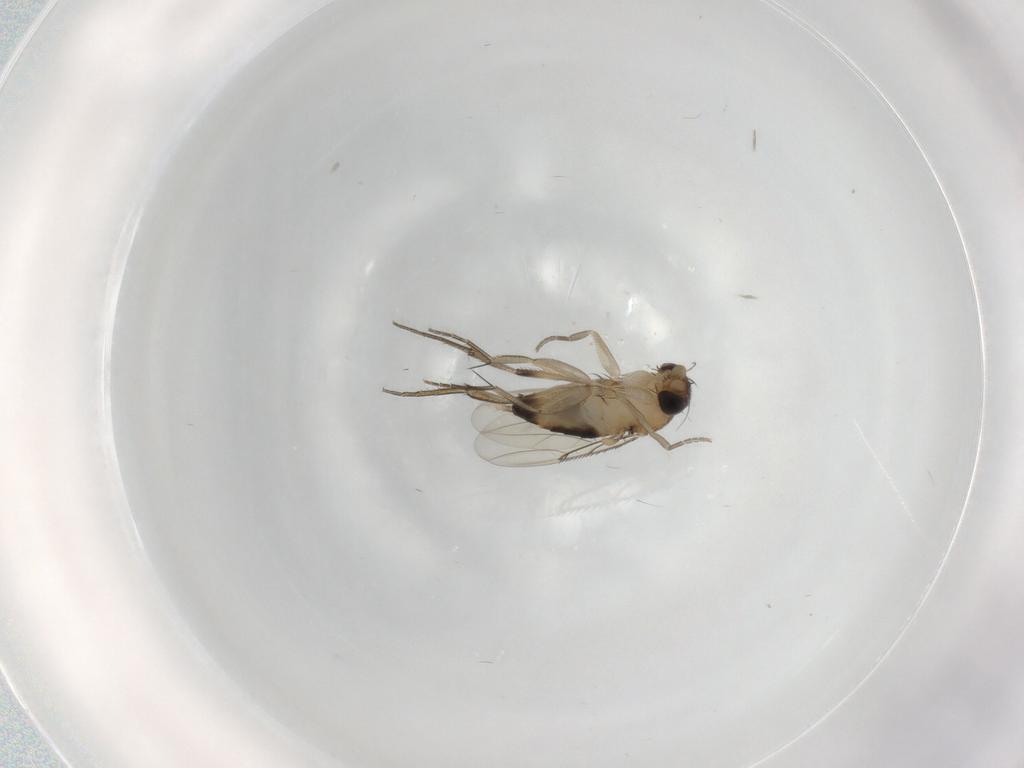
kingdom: Animalia
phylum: Arthropoda
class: Insecta
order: Diptera
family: Phoridae
